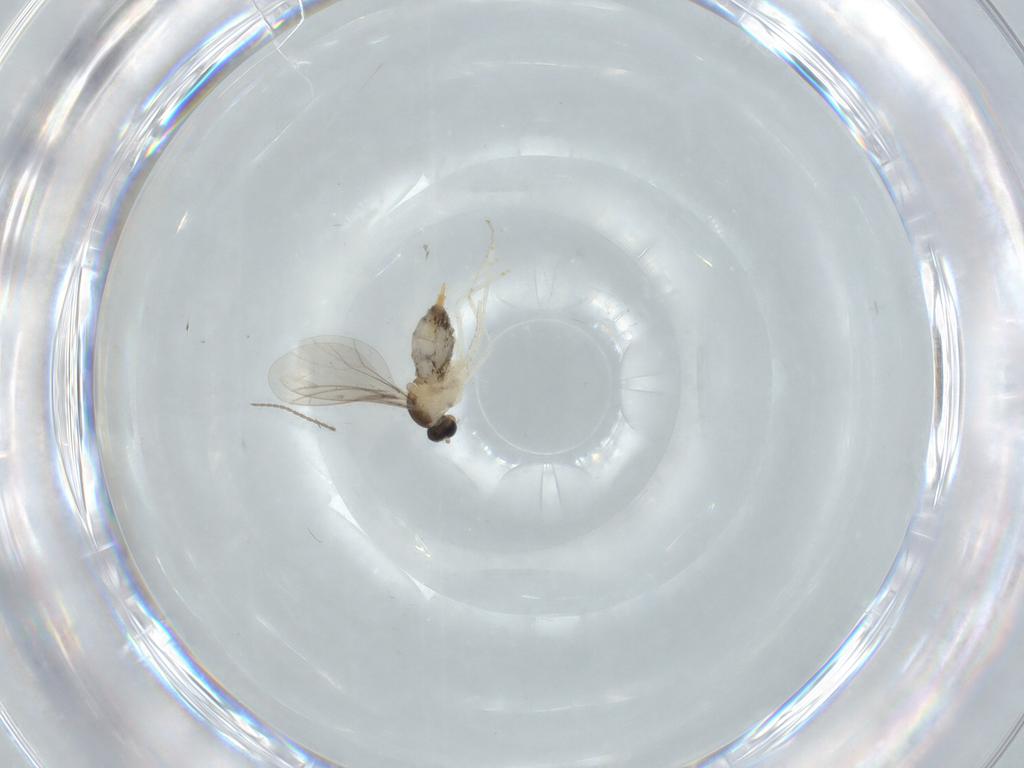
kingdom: Animalia
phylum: Arthropoda
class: Insecta
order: Diptera
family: Cecidomyiidae
